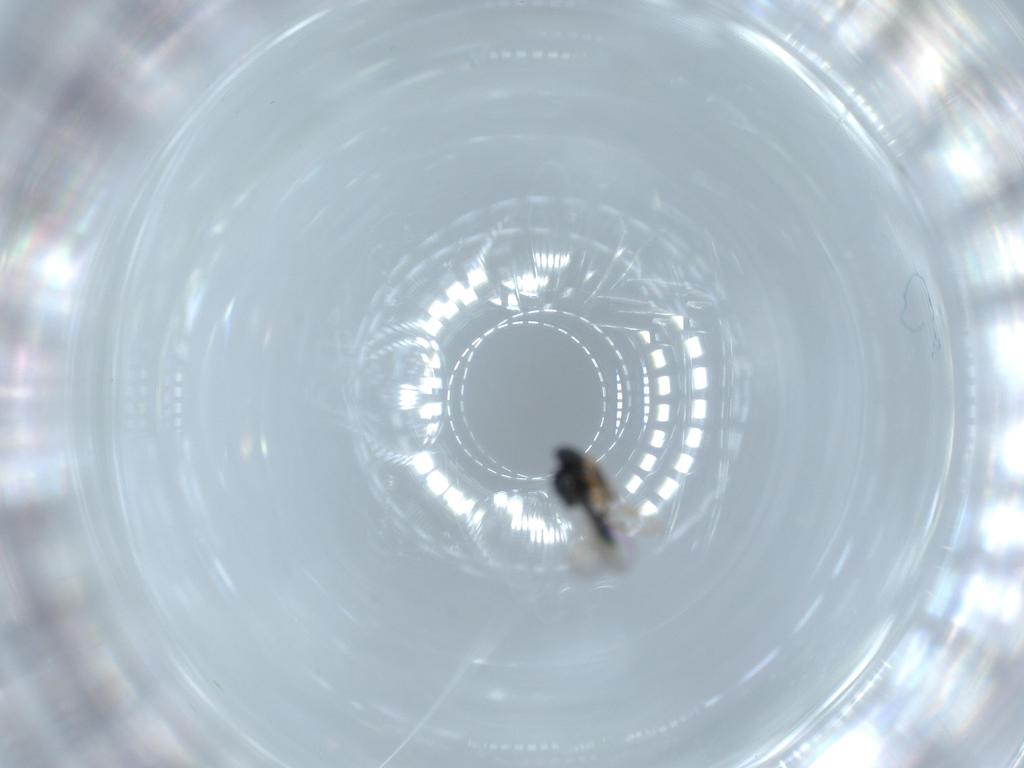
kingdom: Animalia
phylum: Arthropoda
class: Insecta
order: Hymenoptera
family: Platygastridae
